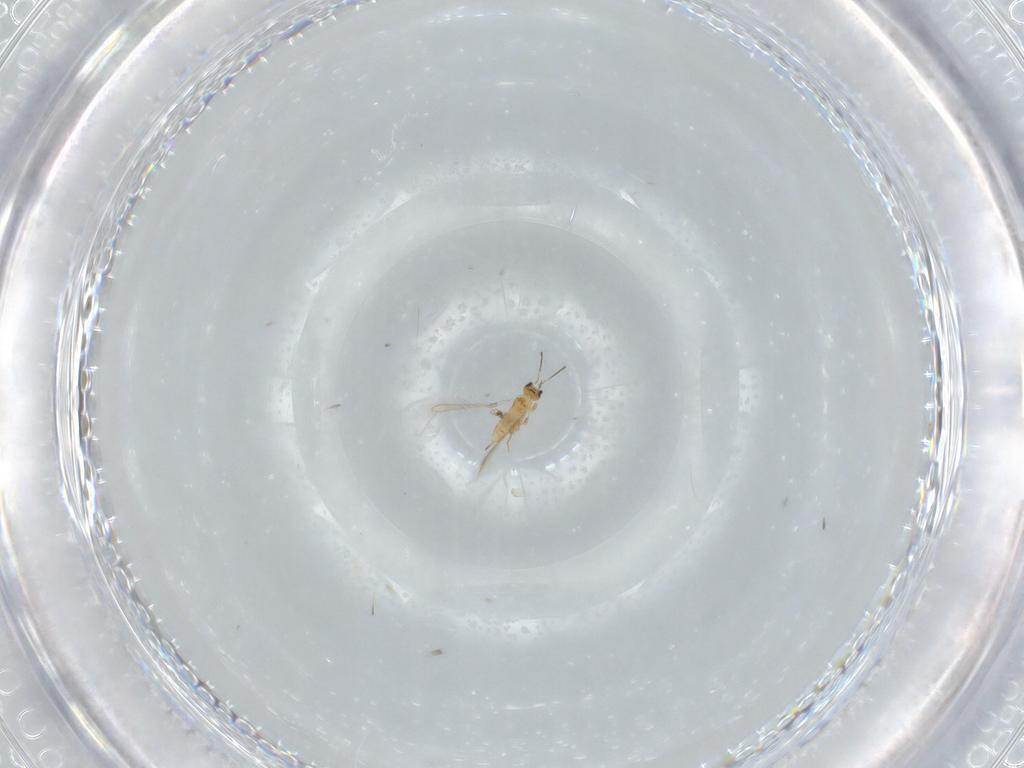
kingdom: Animalia
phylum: Arthropoda
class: Insecta
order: Hymenoptera
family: Mymaridae
